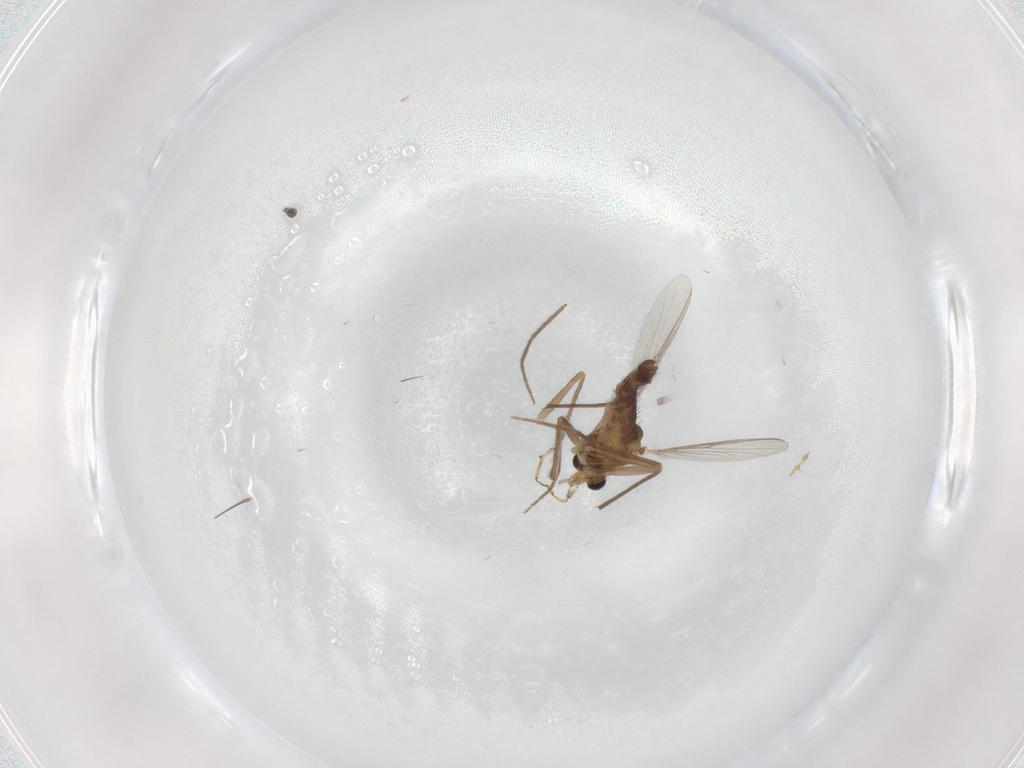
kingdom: Animalia
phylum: Arthropoda
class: Insecta
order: Diptera
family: Chironomidae
